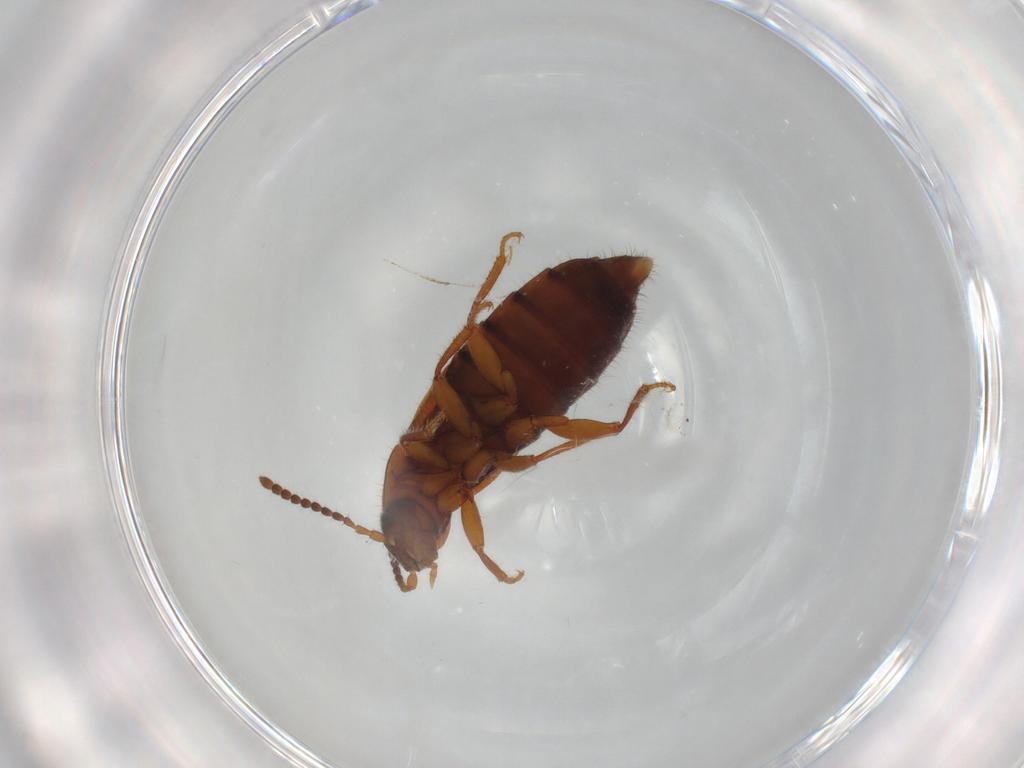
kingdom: Animalia
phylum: Arthropoda
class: Insecta
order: Coleoptera
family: Staphylinidae
